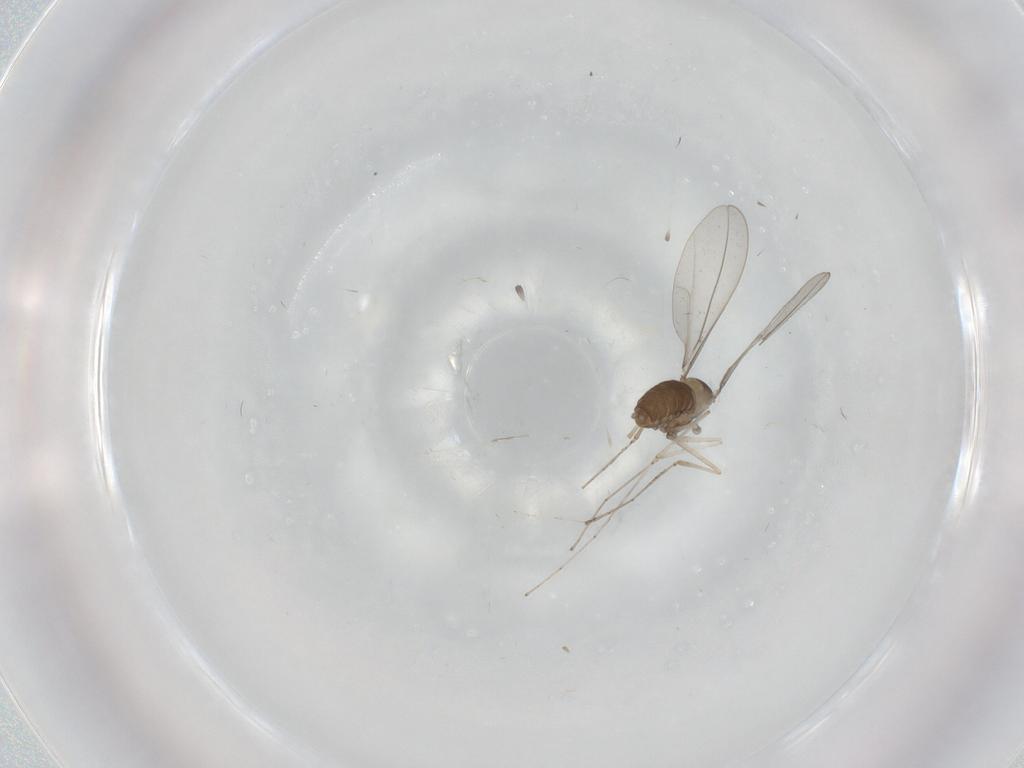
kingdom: Animalia
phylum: Arthropoda
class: Insecta
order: Diptera
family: Cecidomyiidae
